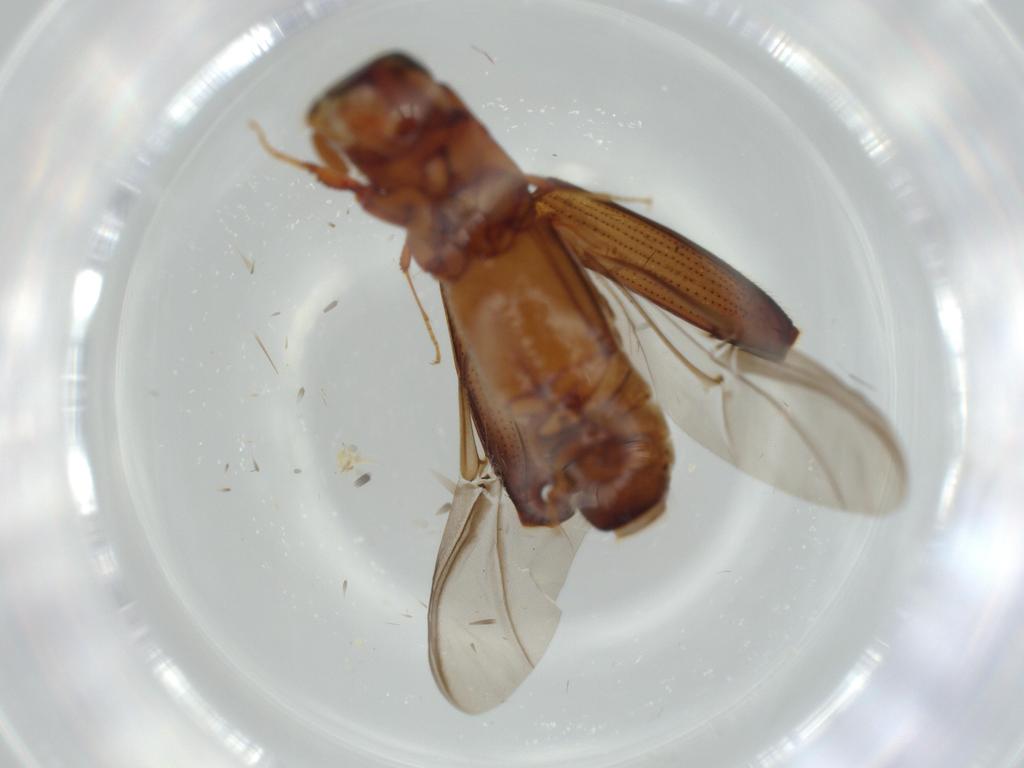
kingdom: Animalia
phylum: Arthropoda
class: Insecta
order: Coleoptera
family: Curculionidae
